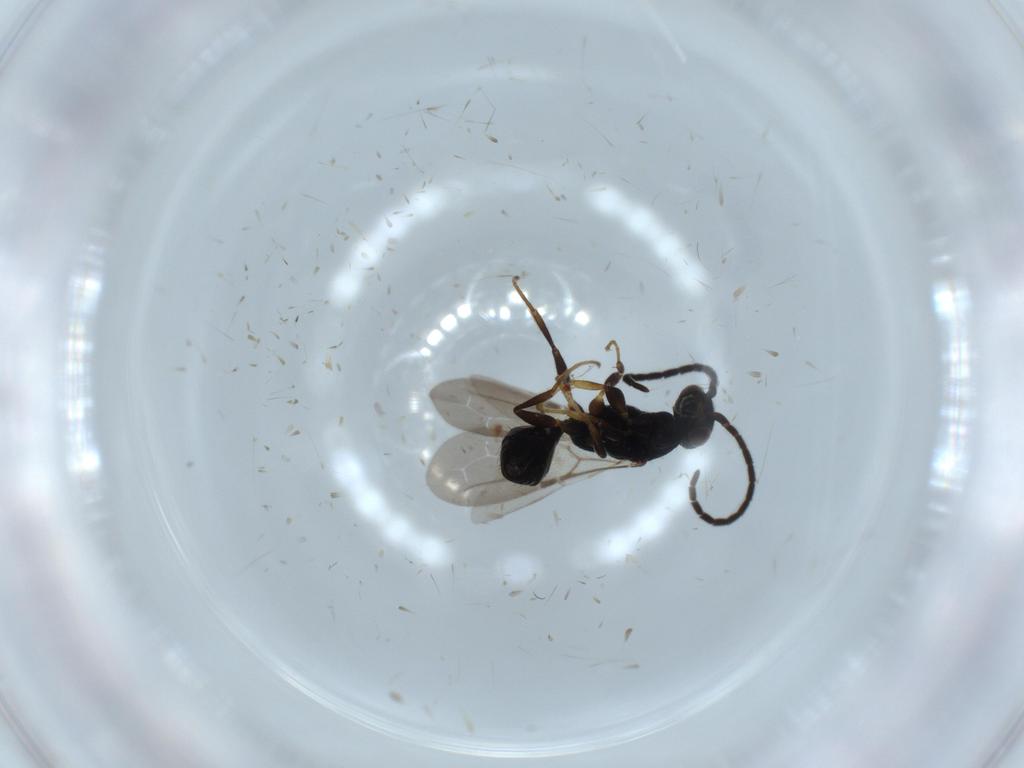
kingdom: Animalia
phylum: Arthropoda
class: Insecta
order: Hymenoptera
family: Bethylidae
